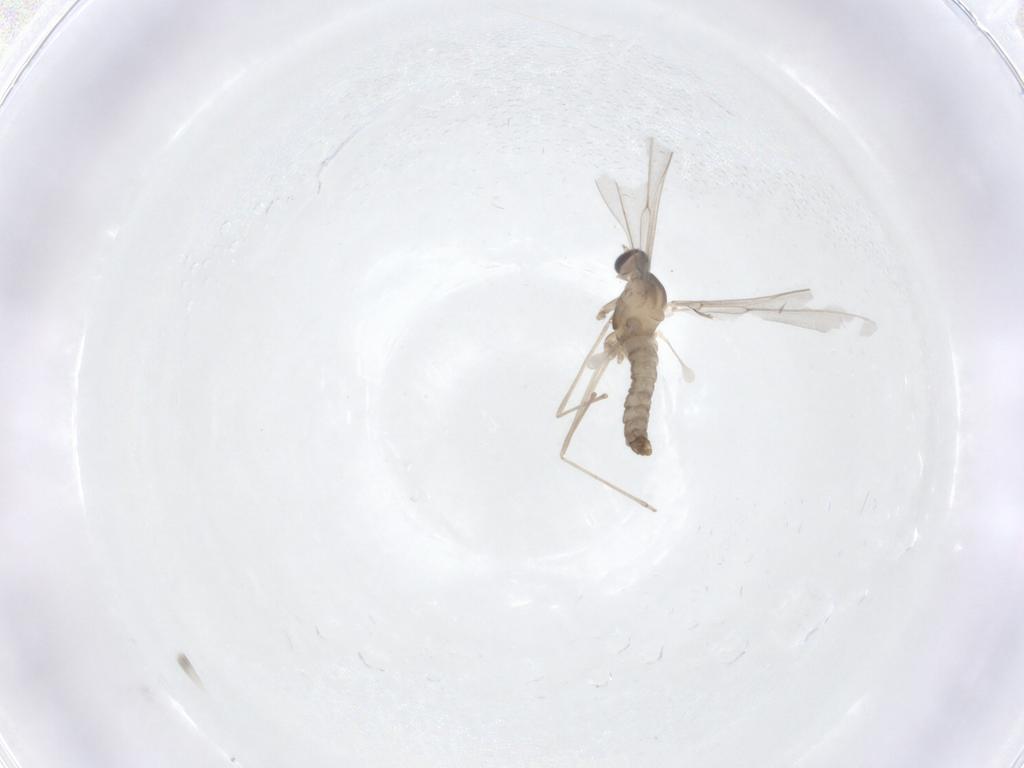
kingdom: Animalia
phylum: Arthropoda
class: Insecta
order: Diptera
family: Cecidomyiidae
